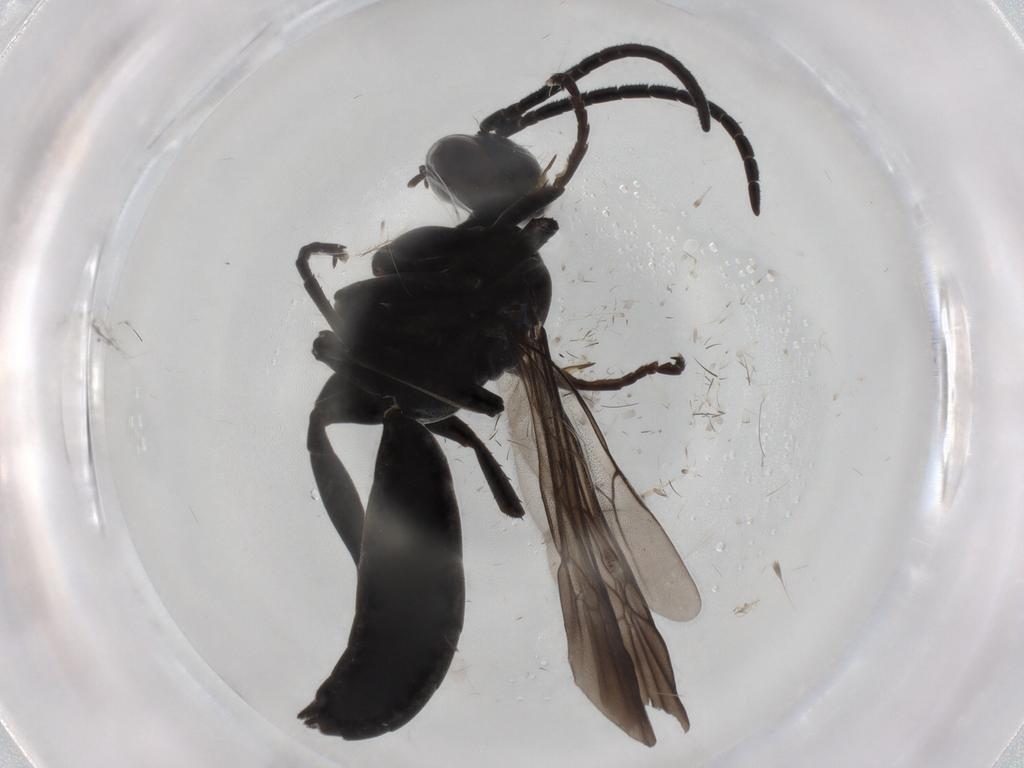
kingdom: Animalia
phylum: Arthropoda
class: Insecta
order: Hymenoptera
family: Pompilidae
